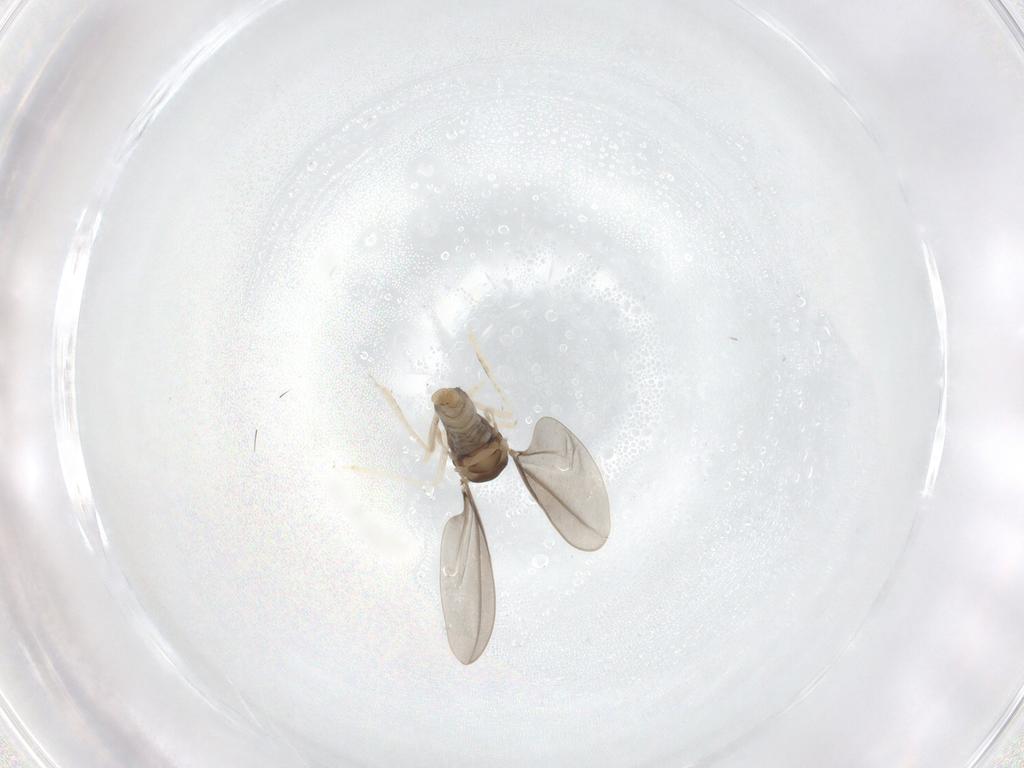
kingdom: Animalia
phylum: Arthropoda
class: Insecta
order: Diptera
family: Cecidomyiidae
